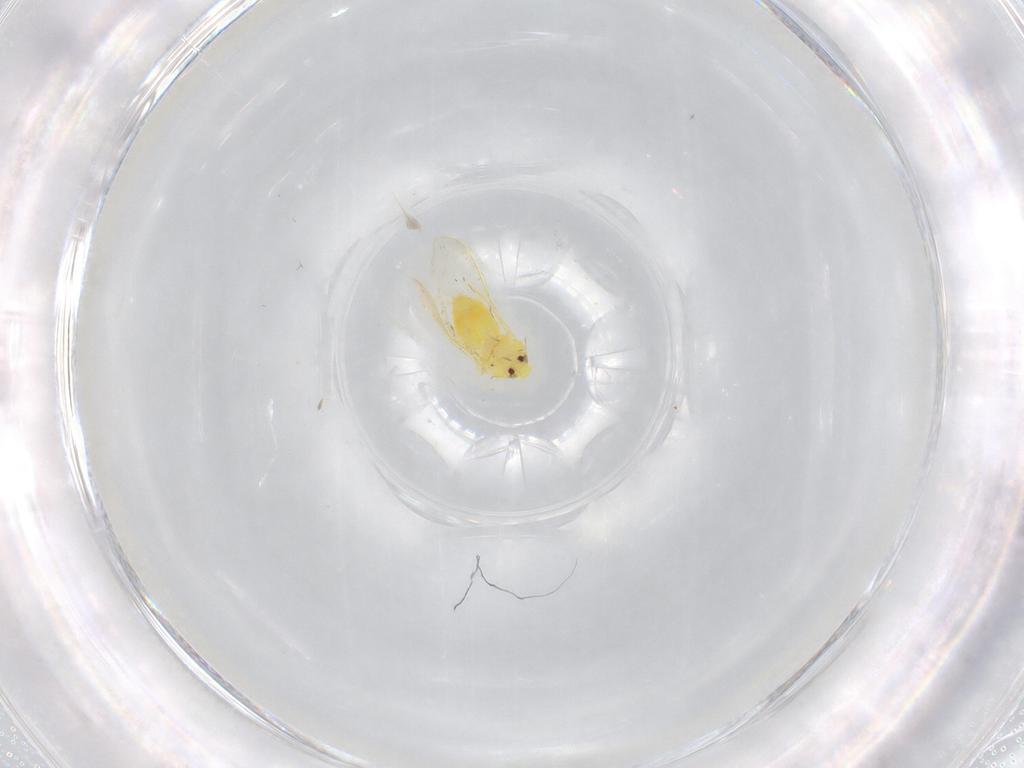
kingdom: Animalia
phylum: Arthropoda
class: Insecta
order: Hemiptera
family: Aleyrodidae
